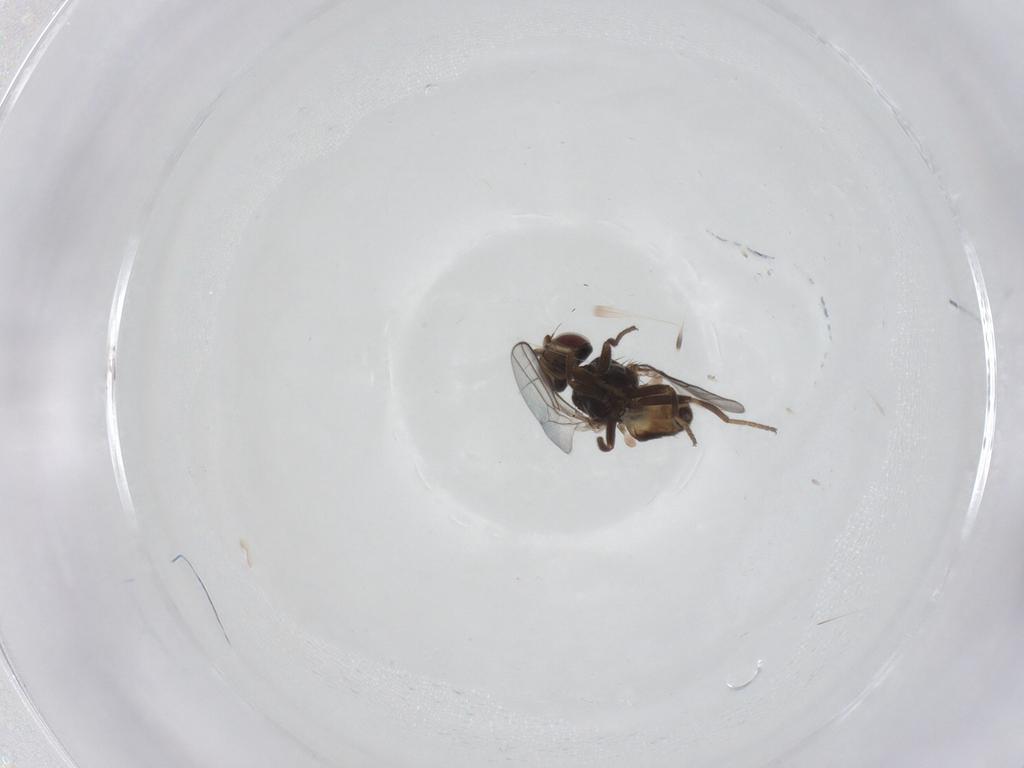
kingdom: Animalia
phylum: Arthropoda
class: Insecta
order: Diptera
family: Chloropidae
